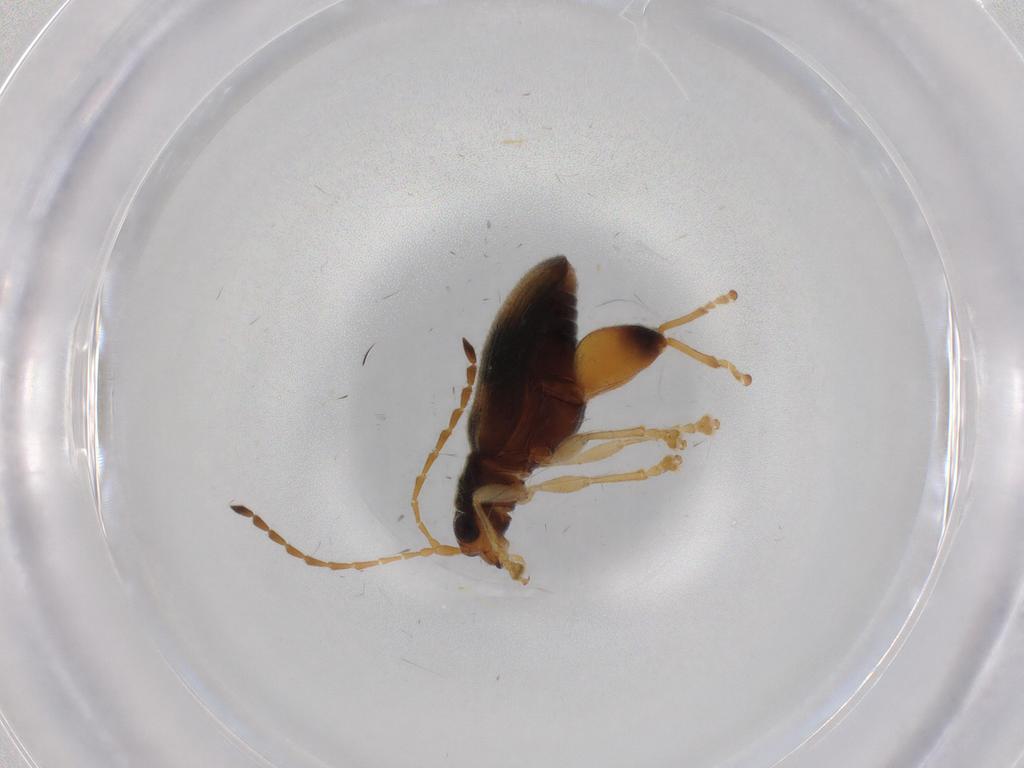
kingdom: Animalia
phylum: Arthropoda
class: Insecta
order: Coleoptera
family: Chrysomelidae
